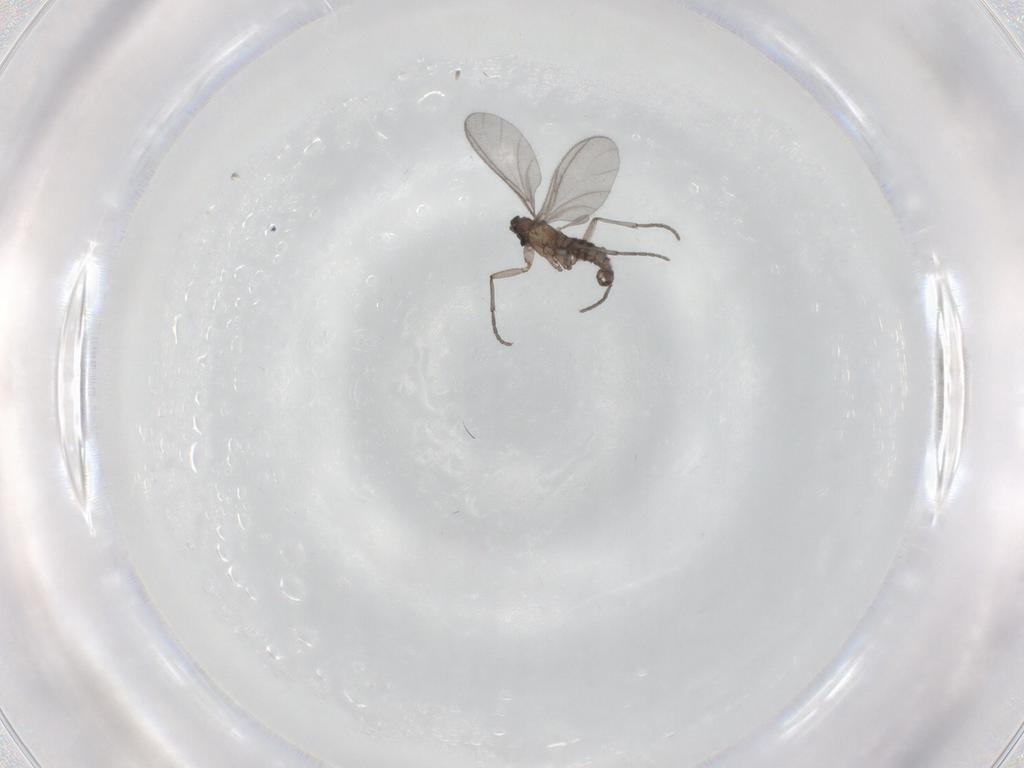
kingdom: Animalia
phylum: Arthropoda
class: Insecta
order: Diptera
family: Sciaridae
